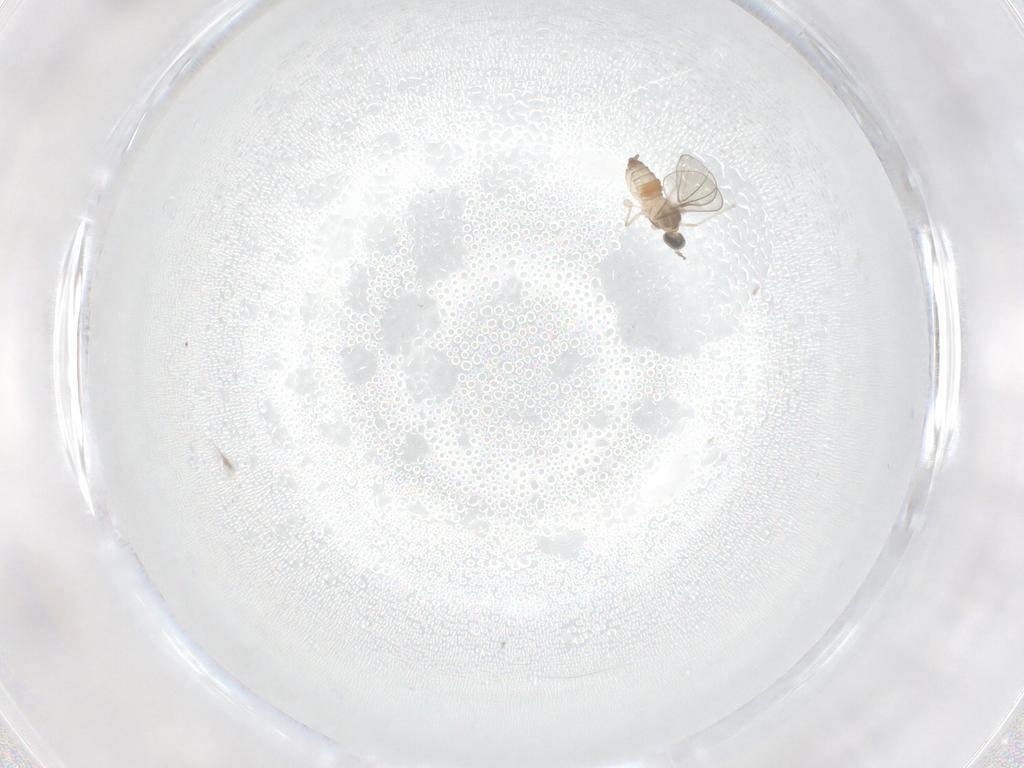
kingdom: Animalia
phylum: Arthropoda
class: Insecta
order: Diptera
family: Cecidomyiidae
